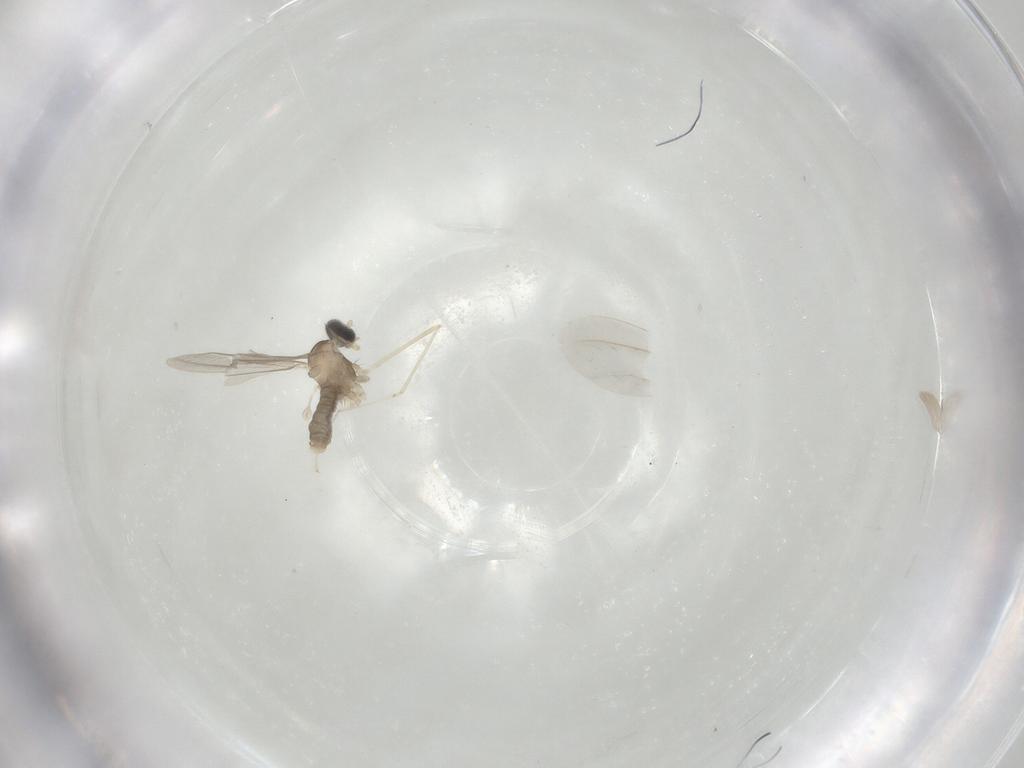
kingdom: Animalia
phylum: Arthropoda
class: Insecta
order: Diptera
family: Cecidomyiidae
